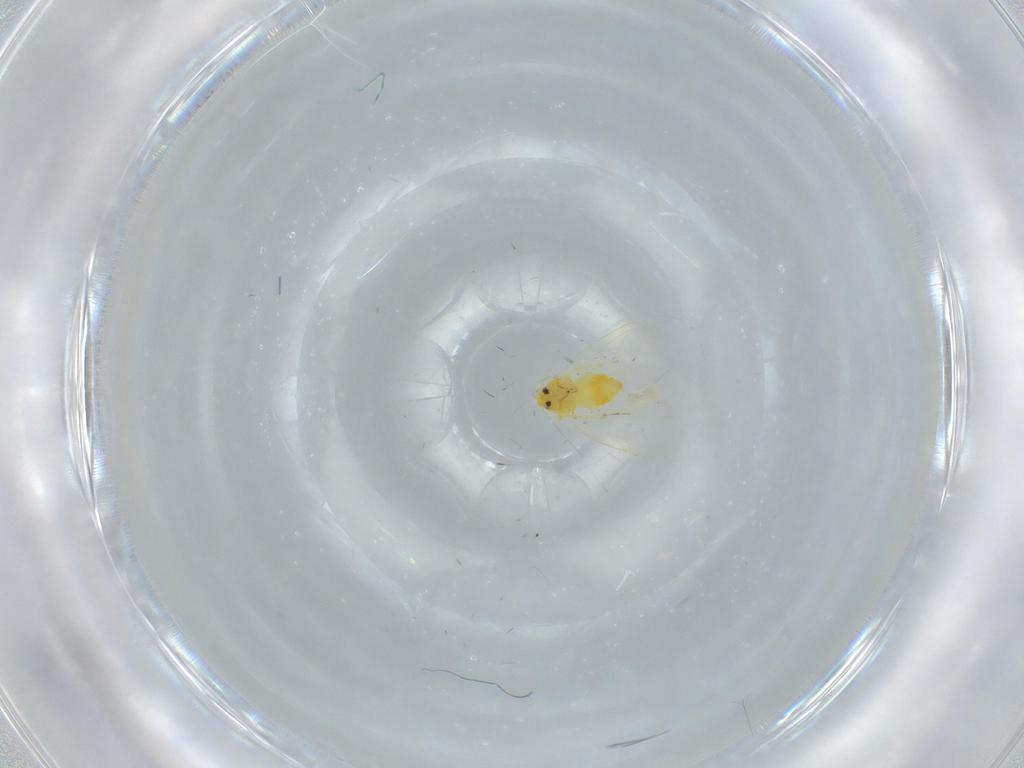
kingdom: Animalia
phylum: Arthropoda
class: Insecta
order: Hemiptera
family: Aleyrodidae
